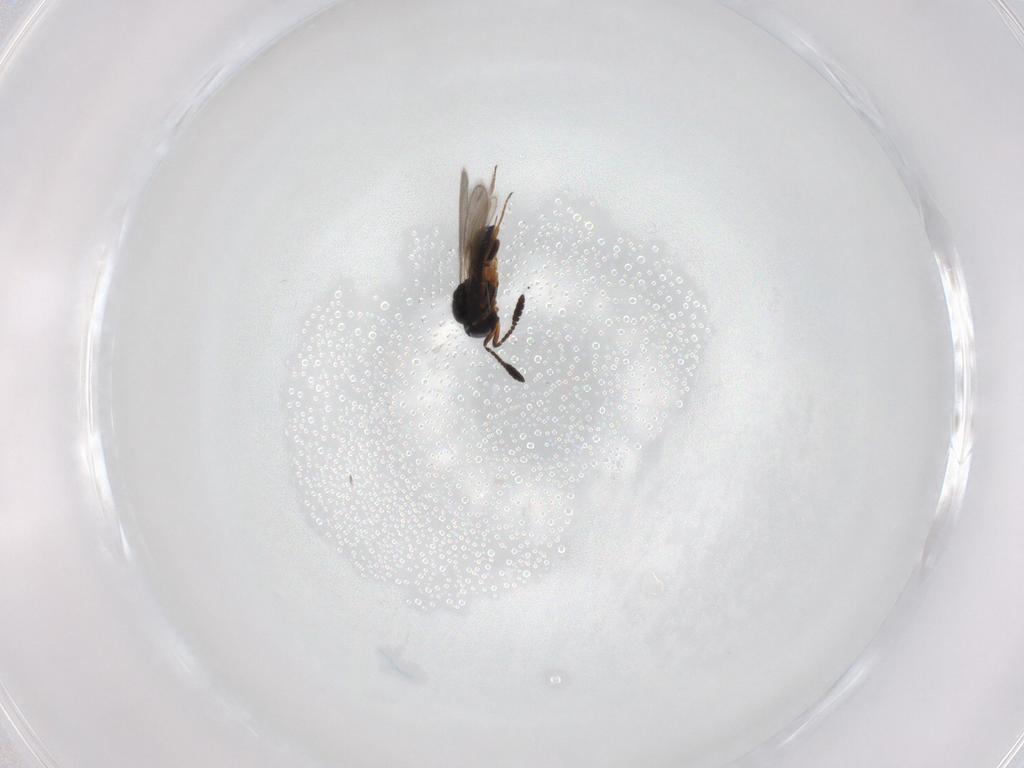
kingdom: Animalia
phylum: Arthropoda
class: Insecta
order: Hymenoptera
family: Scelionidae
